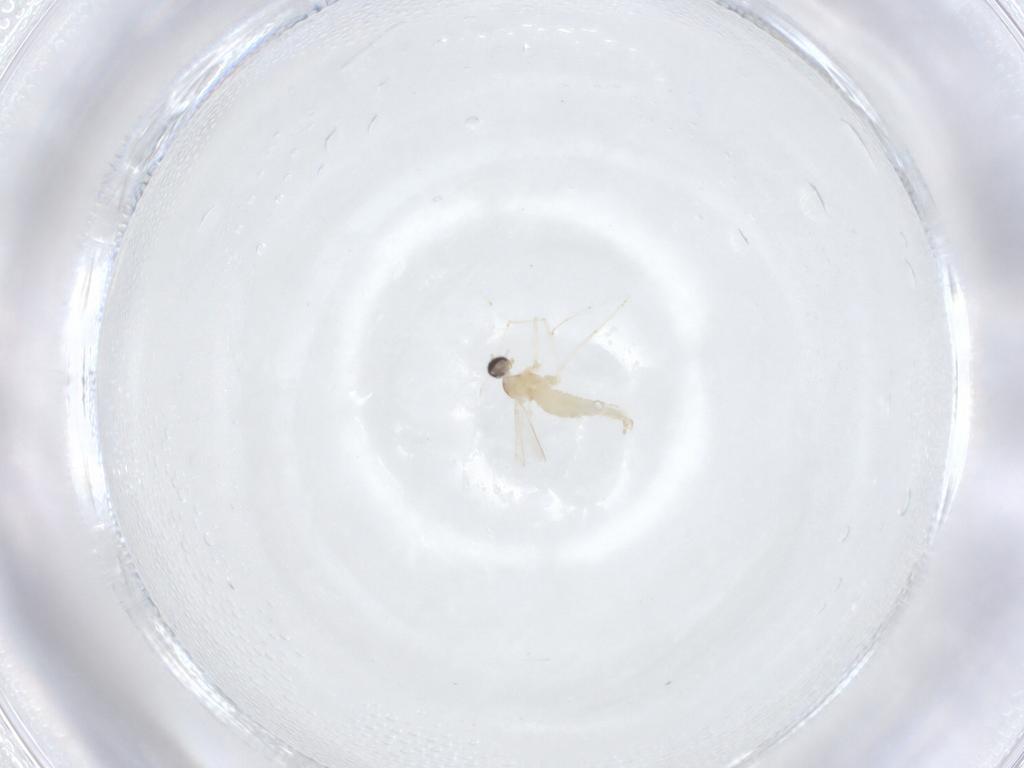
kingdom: Animalia
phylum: Arthropoda
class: Insecta
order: Diptera
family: Cecidomyiidae
